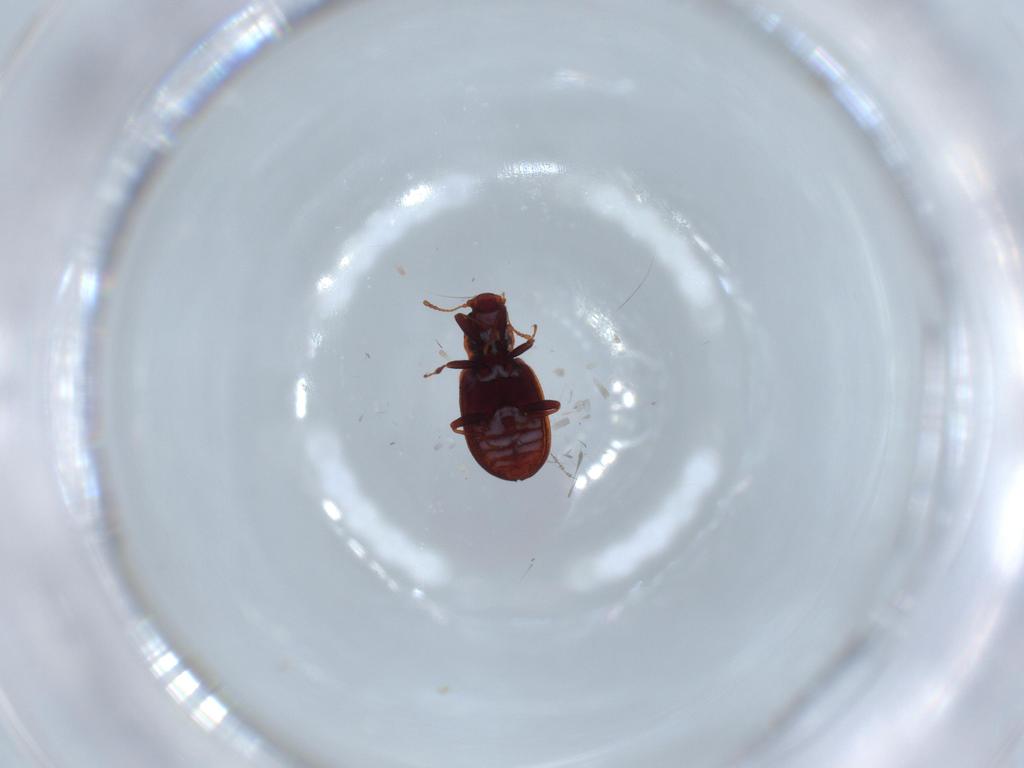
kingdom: Animalia
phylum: Arthropoda
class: Insecta
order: Coleoptera
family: Latridiidae
